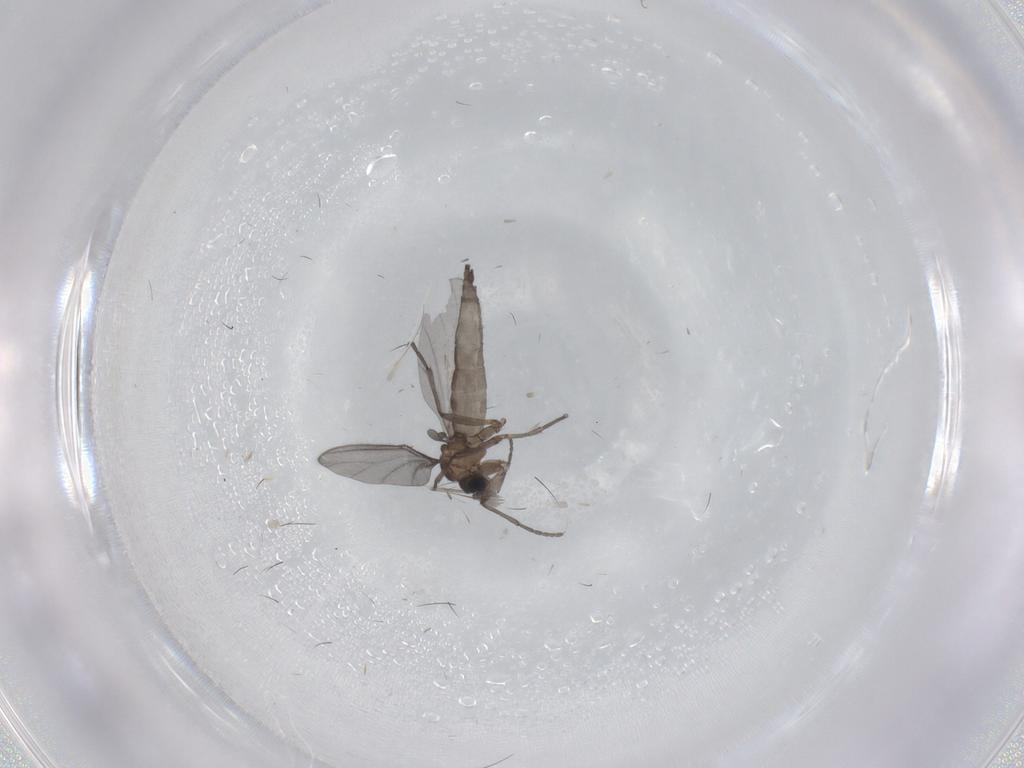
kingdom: Animalia
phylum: Arthropoda
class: Insecta
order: Diptera
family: Sciaridae
